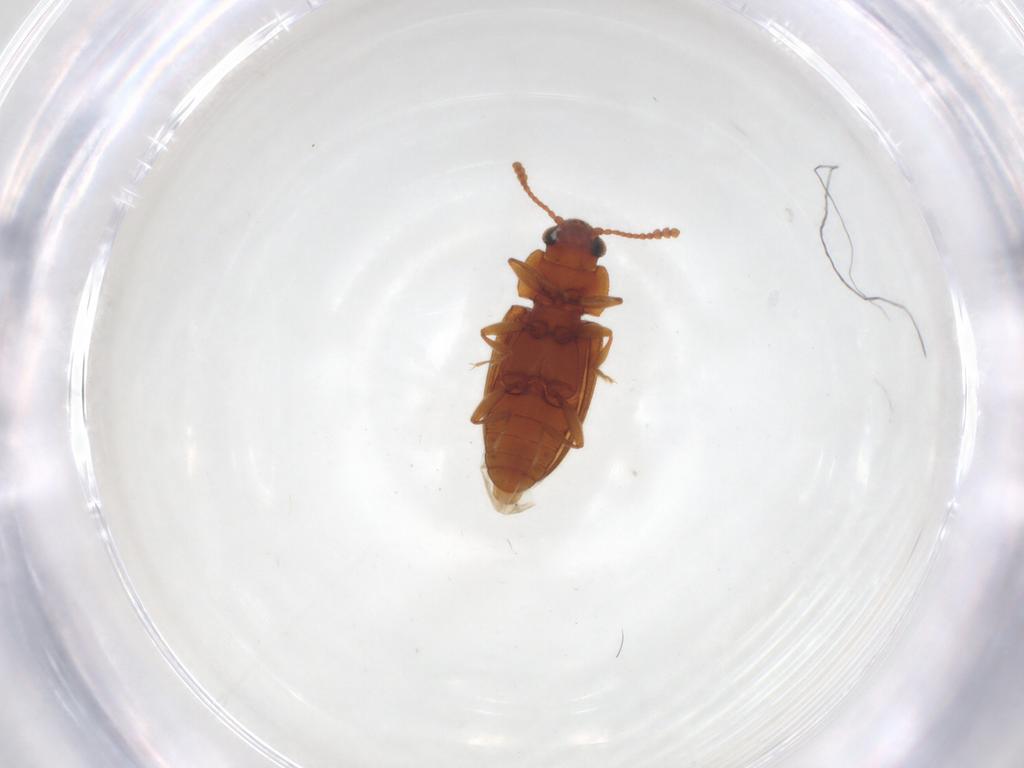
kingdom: Animalia
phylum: Arthropoda
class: Insecta
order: Coleoptera
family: Erotylidae
